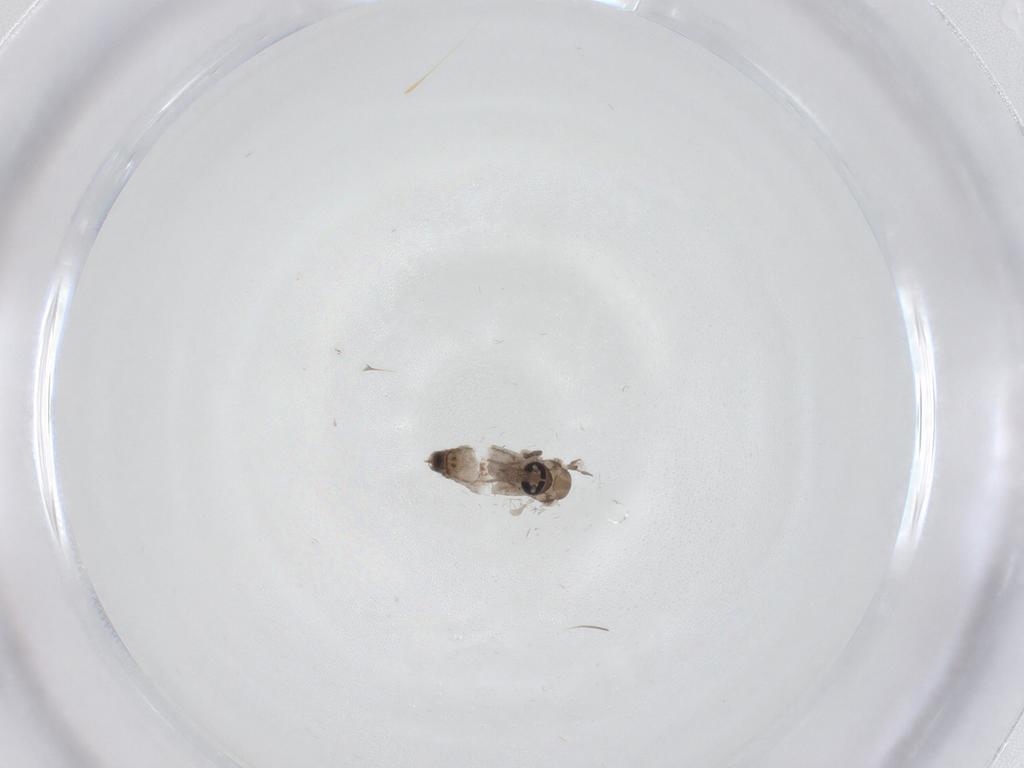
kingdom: Animalia
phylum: Arthropoda
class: Insecta
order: Diptera
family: Psychodidae
